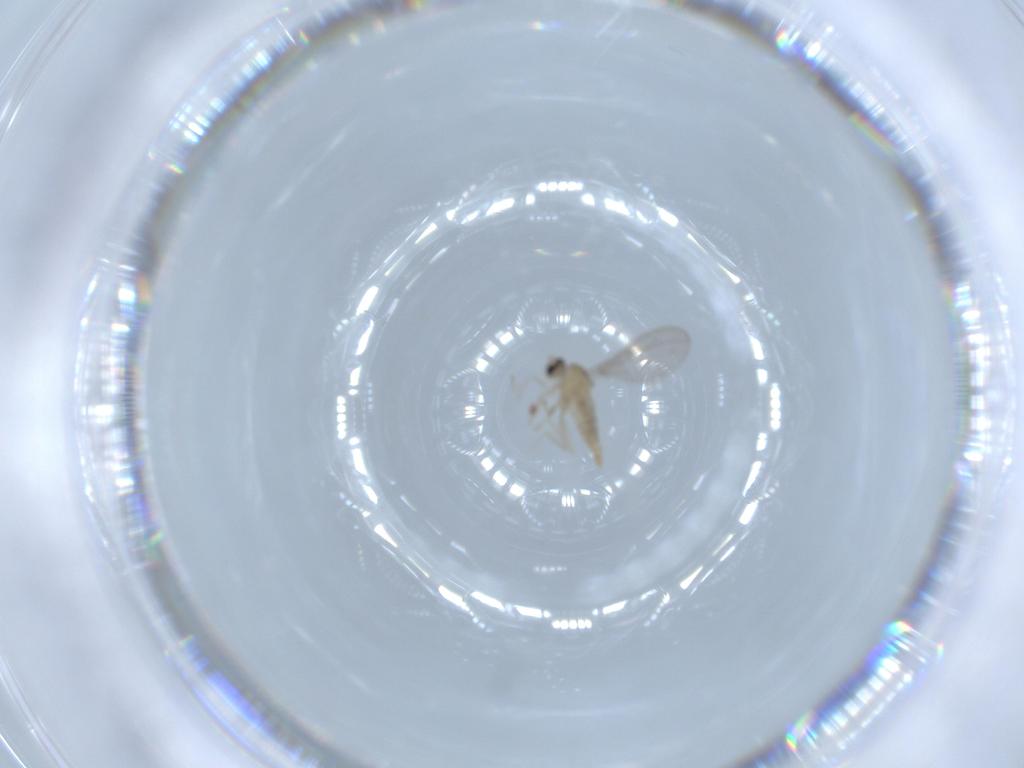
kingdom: Animalia
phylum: Arthropoda
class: Insecta
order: Diptera
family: Cecidomyiidae
